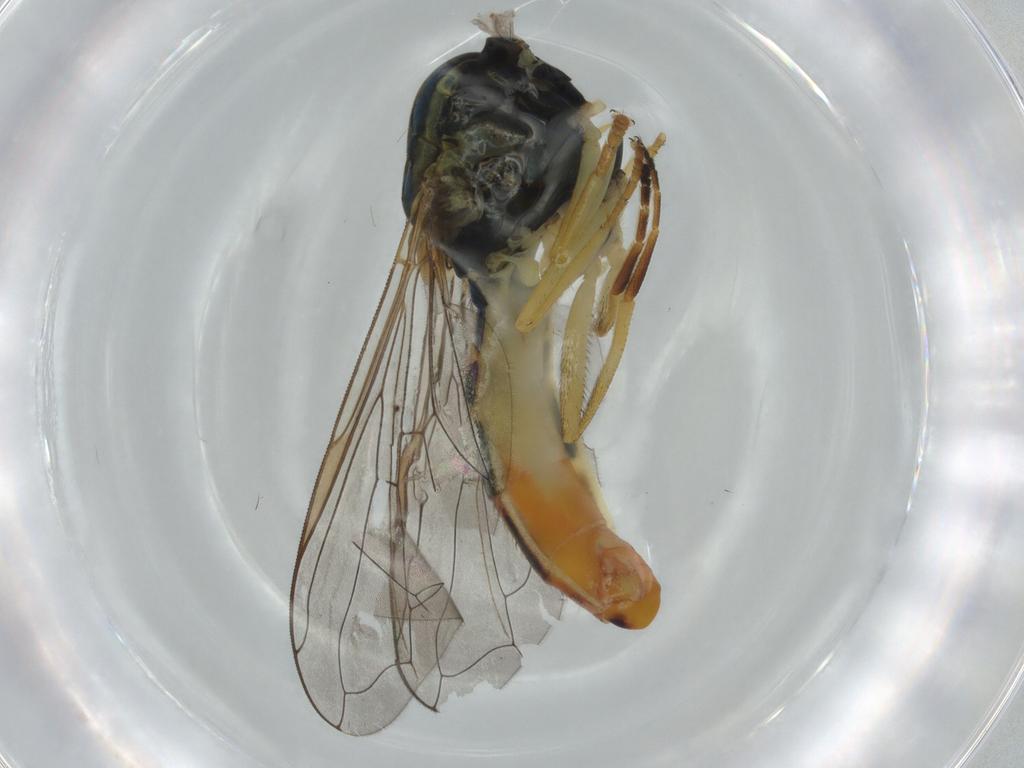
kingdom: Animalia
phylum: Arthropoda
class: Insecta
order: Diptera
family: Syrphidae
